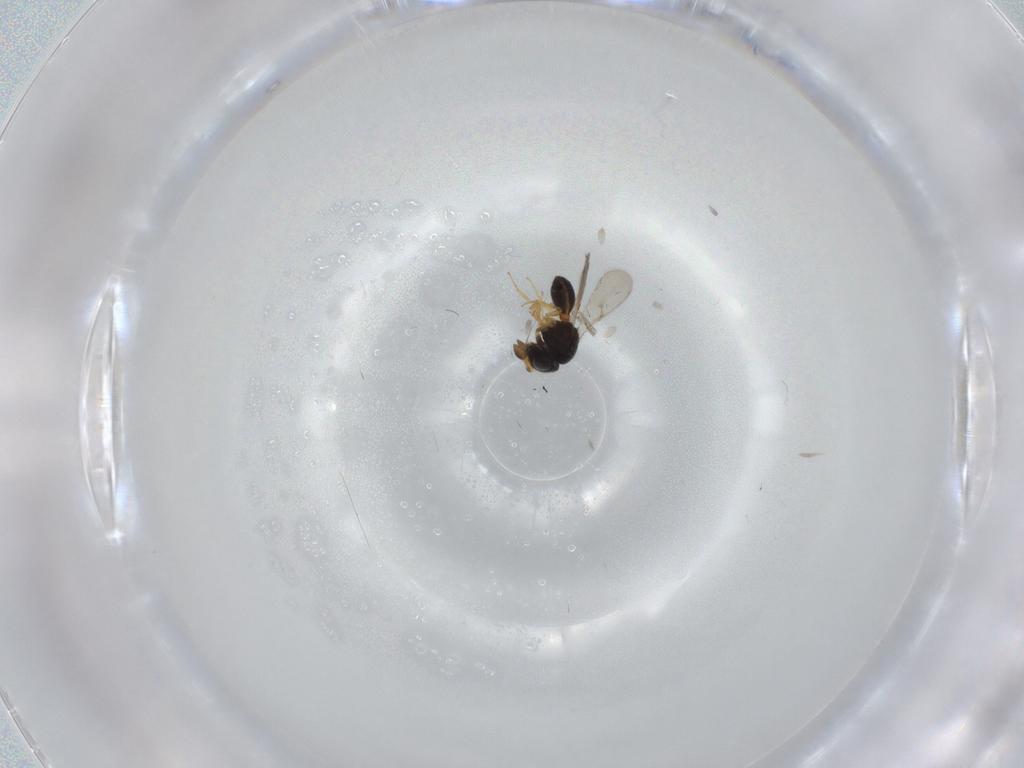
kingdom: Animalia
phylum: Arthropoda
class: Insecta
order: Hymenoptera
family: Scelionidae
